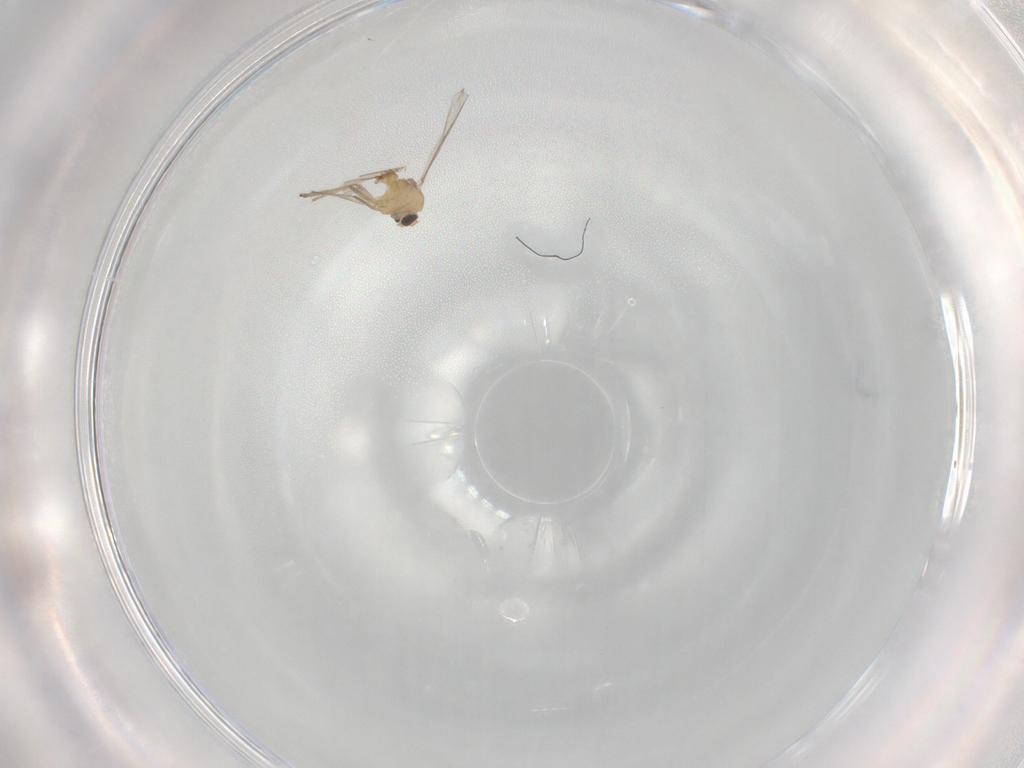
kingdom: Animalia
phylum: Arthropoda
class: Insecta
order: Diptera
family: Chironomidae
